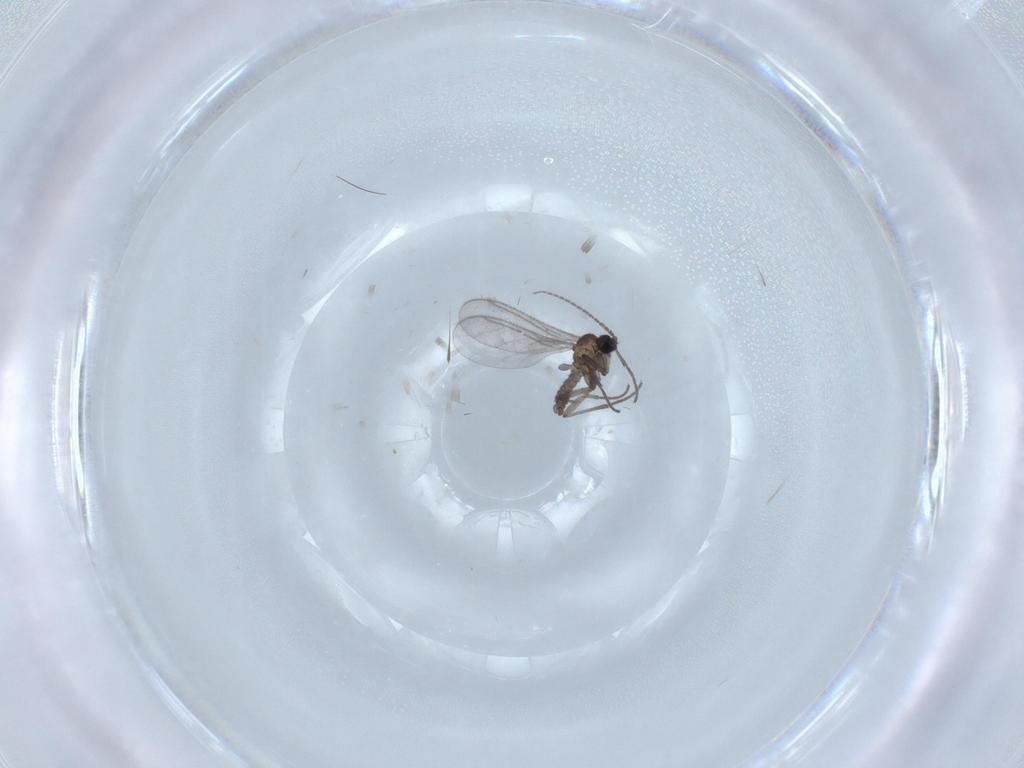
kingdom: Animalia
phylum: Arthropoda
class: Insecta
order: Diptera
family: Sciaridae
